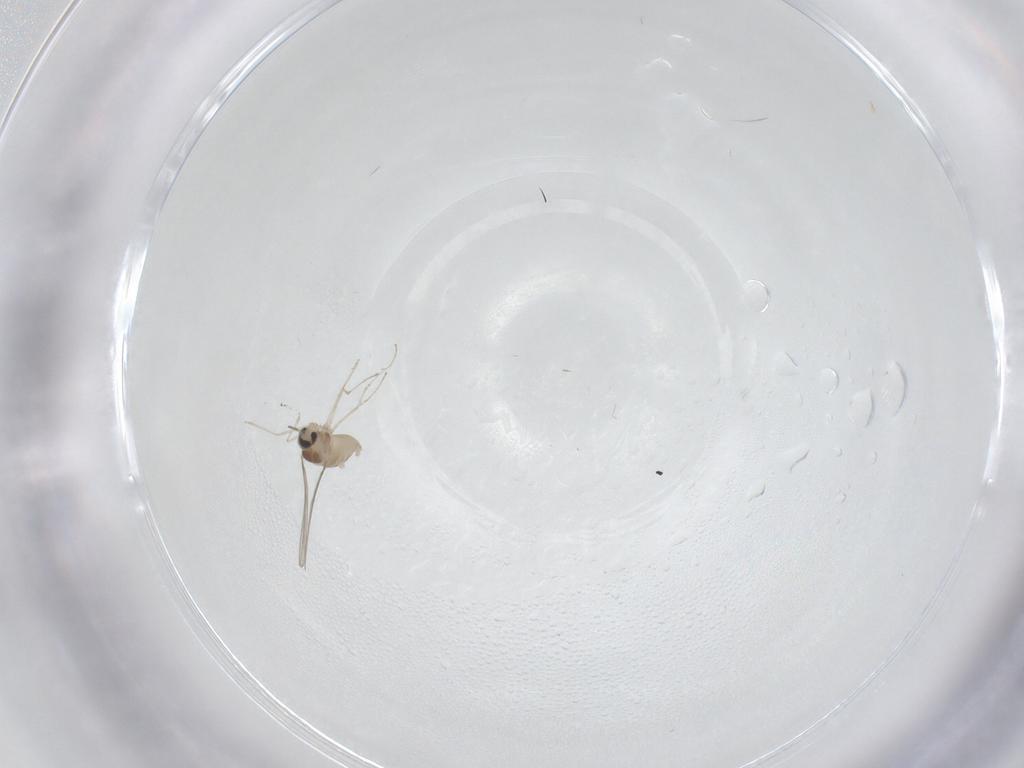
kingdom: Animalia
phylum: Arthropoda
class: Insecta
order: Diptera
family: Cecidomyiidae
